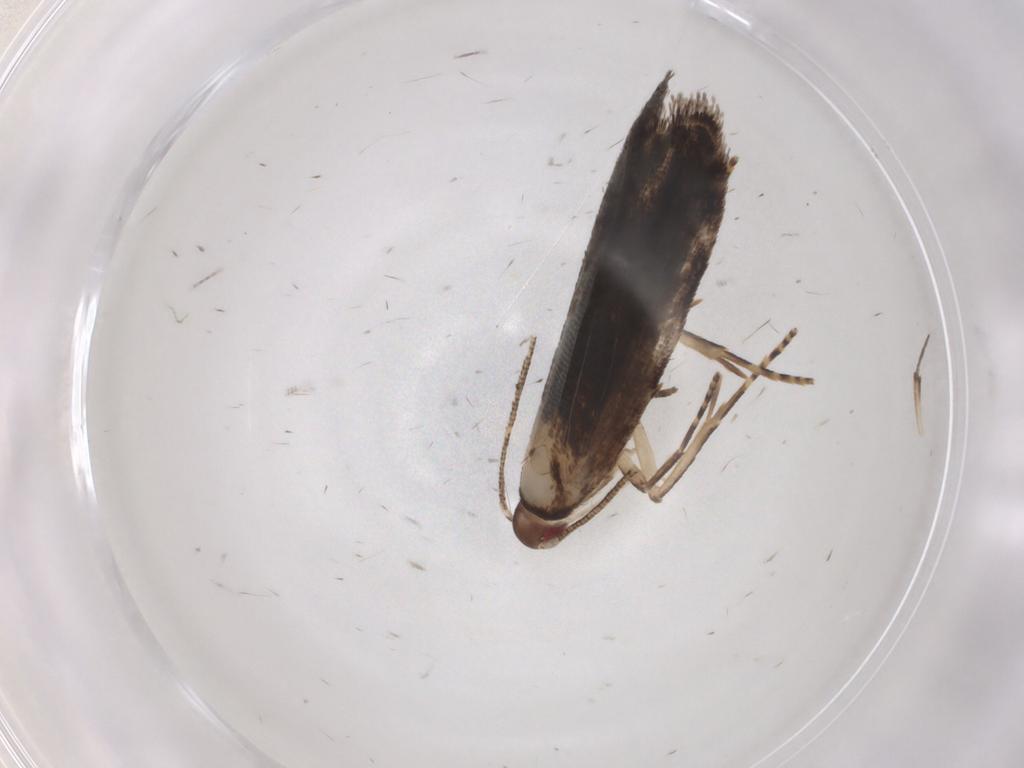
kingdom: Animalia
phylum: Arthropoda
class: Insecta
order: Lepidoptera
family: Gelechiidae
